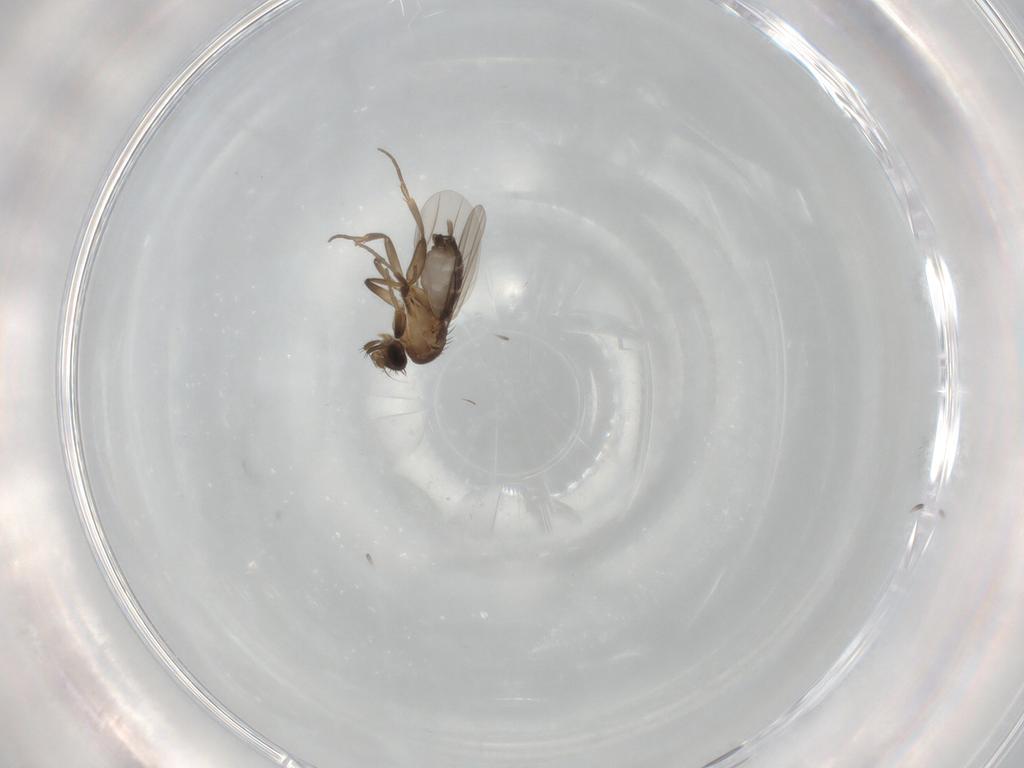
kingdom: Animalia
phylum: Arthropoda
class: Insecta
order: Diptera
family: Phoridae
